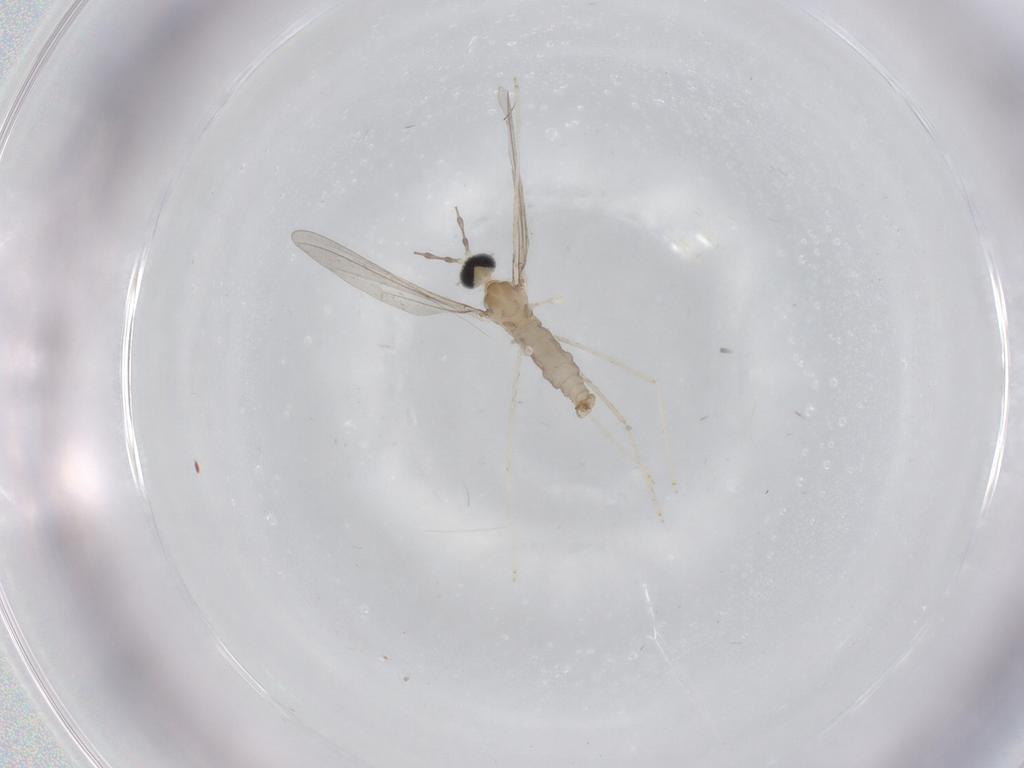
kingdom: Animalia
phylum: Arthropoda
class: Insecta
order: Diptera
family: Cecidomyiidae
